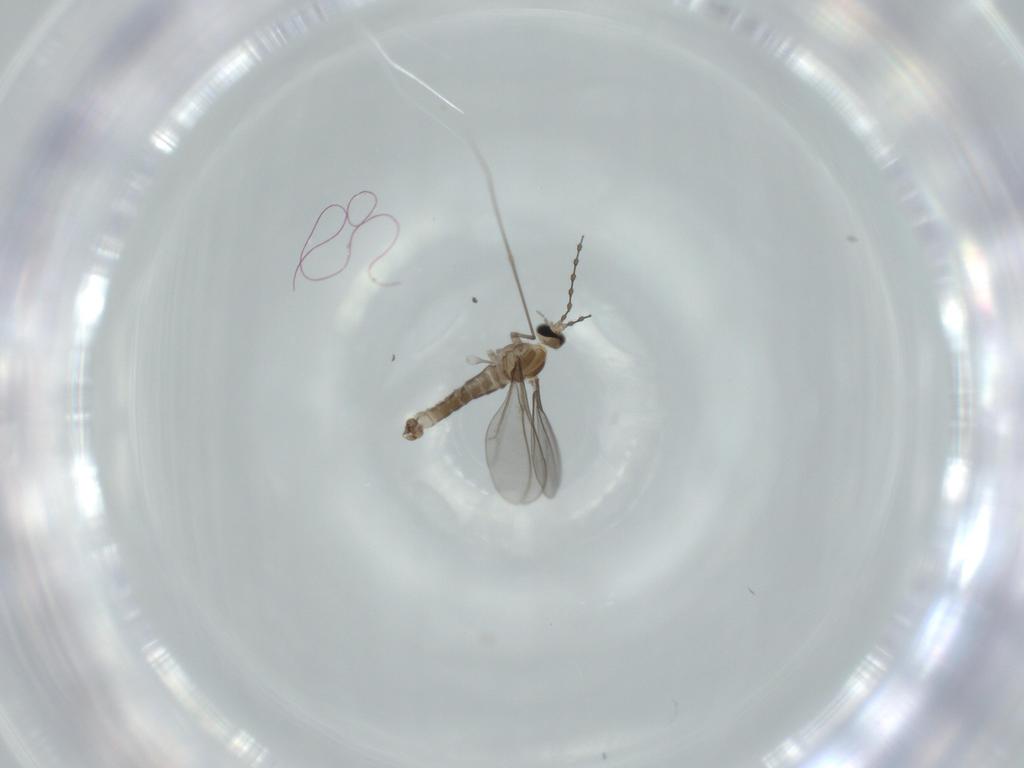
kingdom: Animalia
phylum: Arthropoda
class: Insecta
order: Diptera
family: Cecidomyiidae
